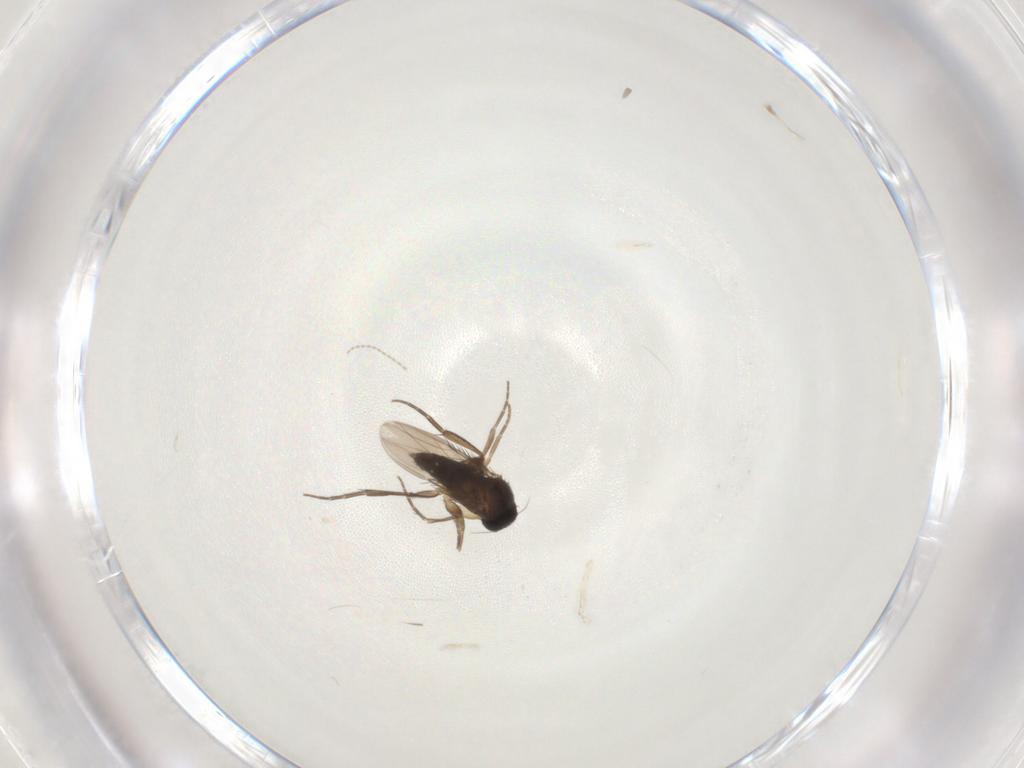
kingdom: Animalia
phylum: Arthropoda
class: Insecta
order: Diptera
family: Phoridae
